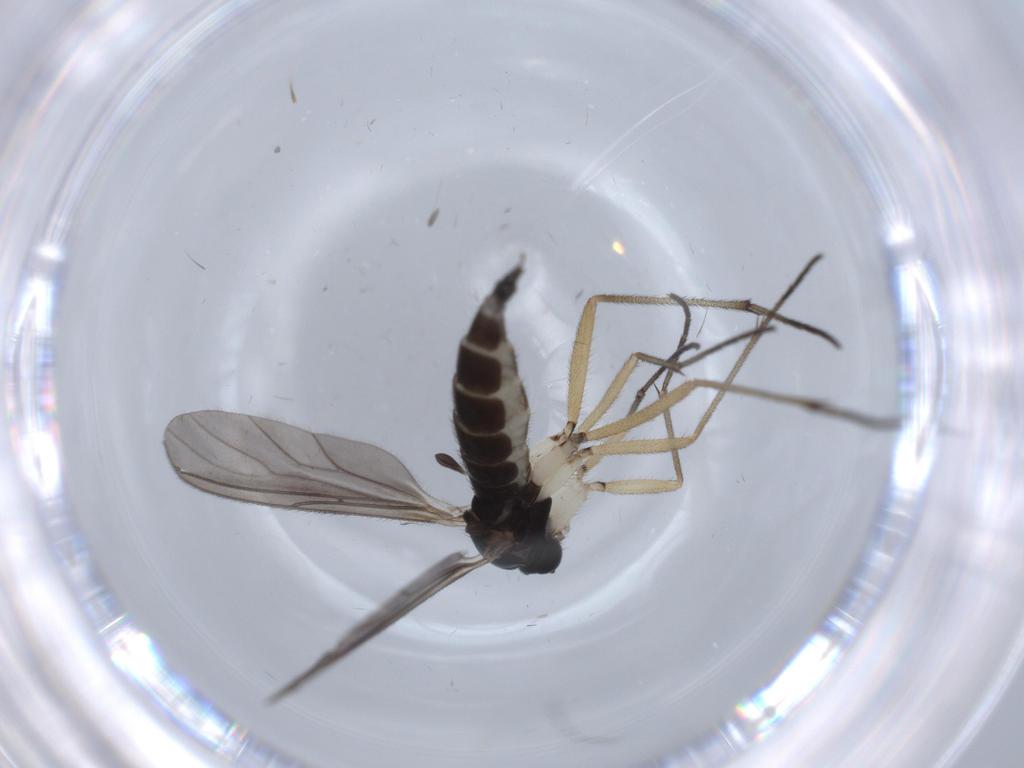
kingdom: Animalia
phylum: Arthropoda
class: Insecta
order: Diptera
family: Sciaridae
